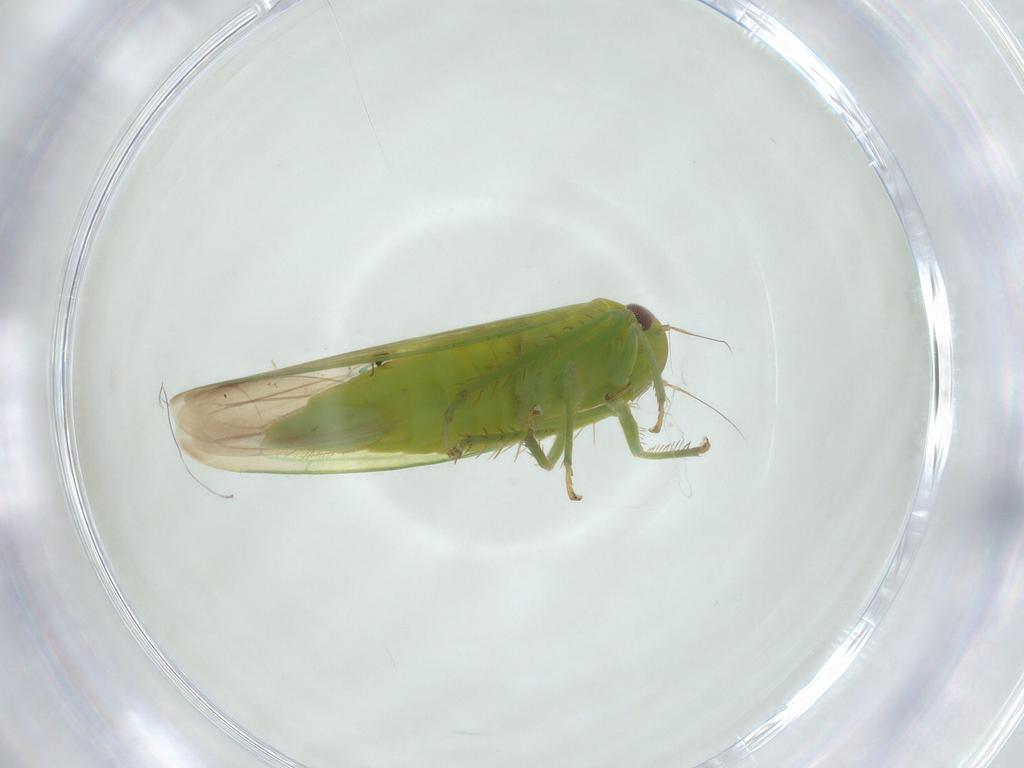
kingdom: Animalia
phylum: Arthropoda
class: Insecta
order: Hemiptera
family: Cicadellidae
